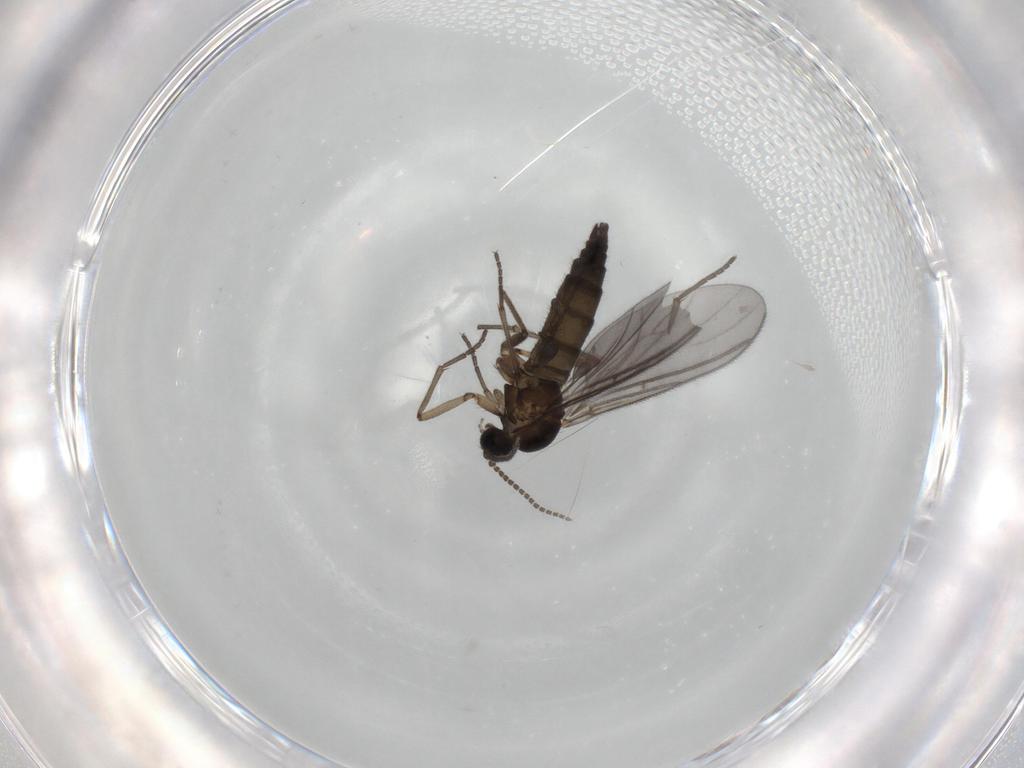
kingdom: Animalia
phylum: Arthropoda
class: Insecta
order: Diptera
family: Sciaridae
